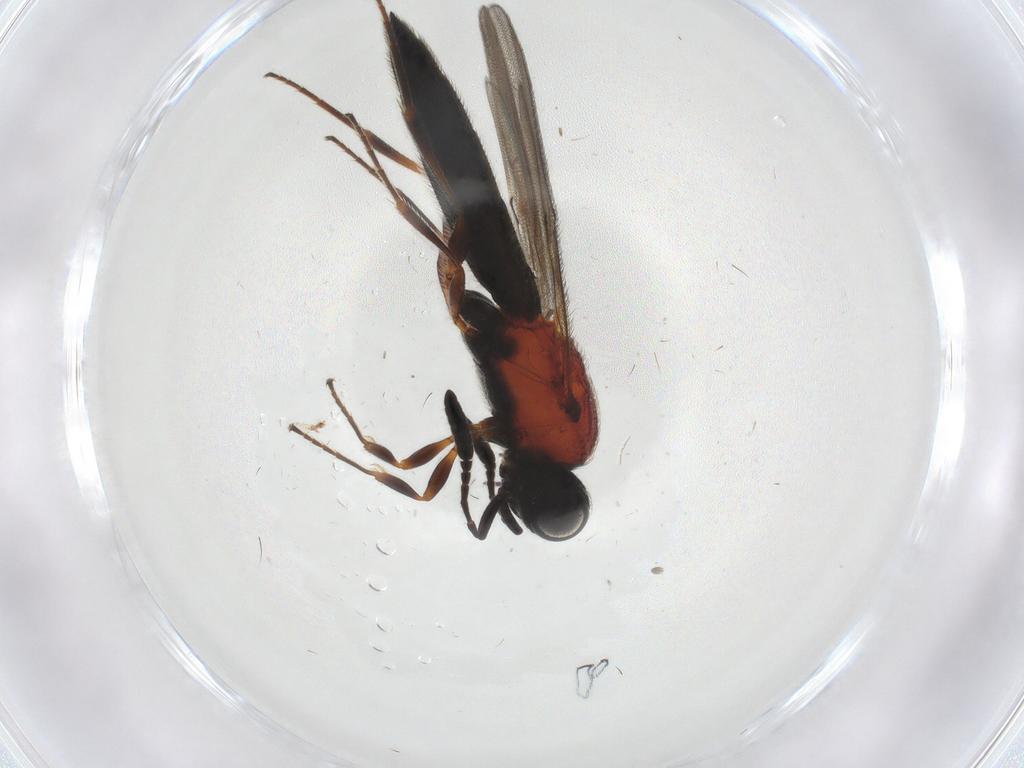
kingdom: Animalia
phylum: Arthropoda
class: Insecta
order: Hymenoptera
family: Scelionidae
